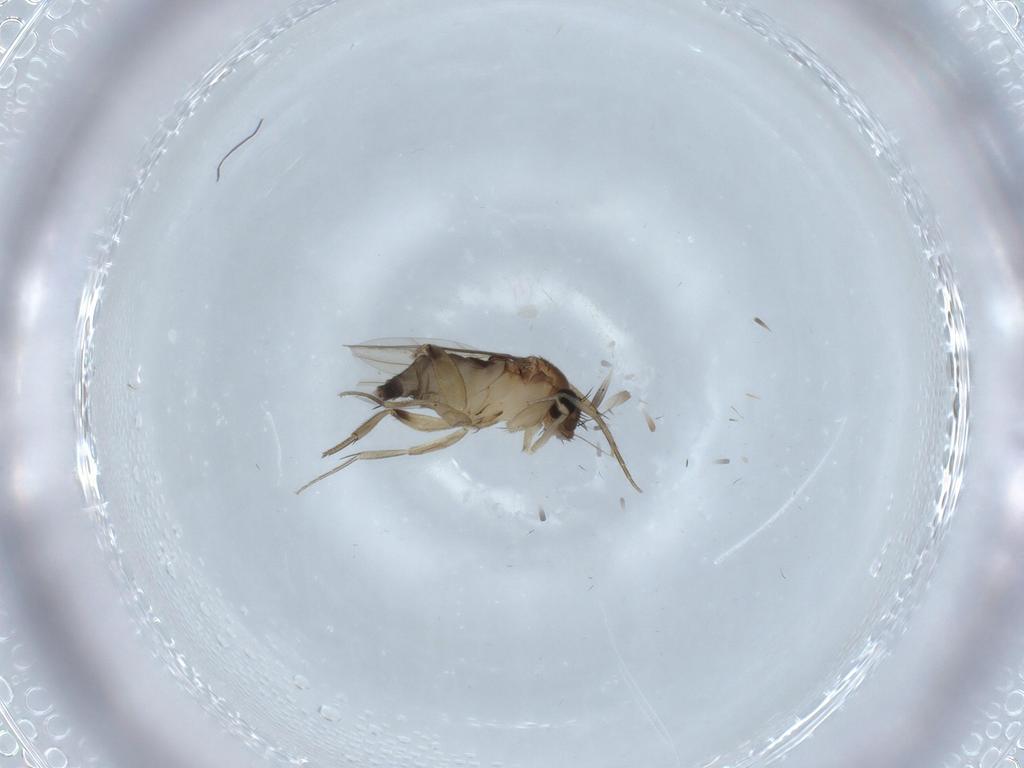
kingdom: Animalia
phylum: Arthropoda
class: Insecta
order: Diptera
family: Phoridae
